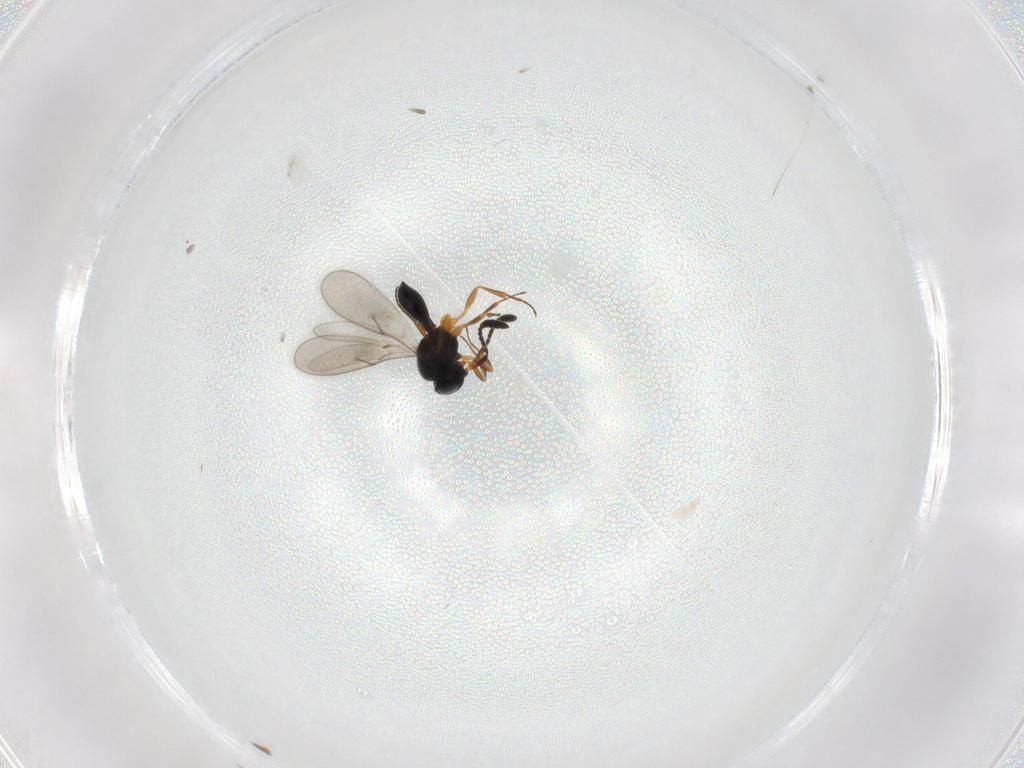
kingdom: Animalia
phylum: Arthropoda
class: Insecta
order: Hymenoptera
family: Scelionidae
